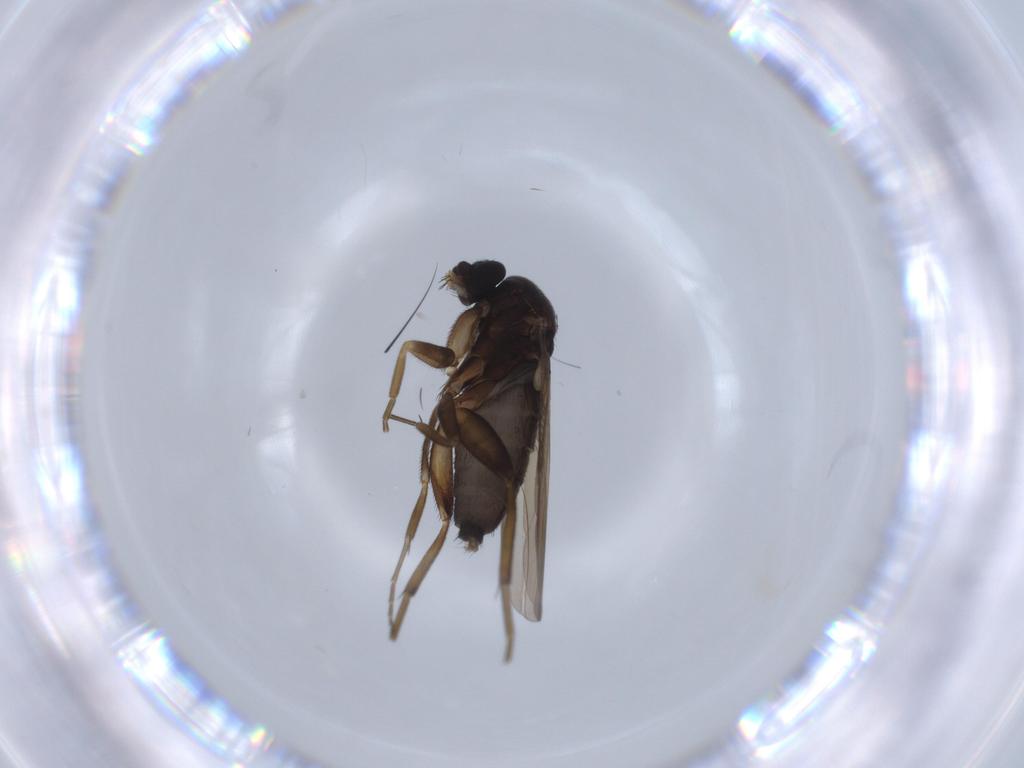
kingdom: Animalia
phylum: Arthropoda
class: Insecta
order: Diptera
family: Phoridae
